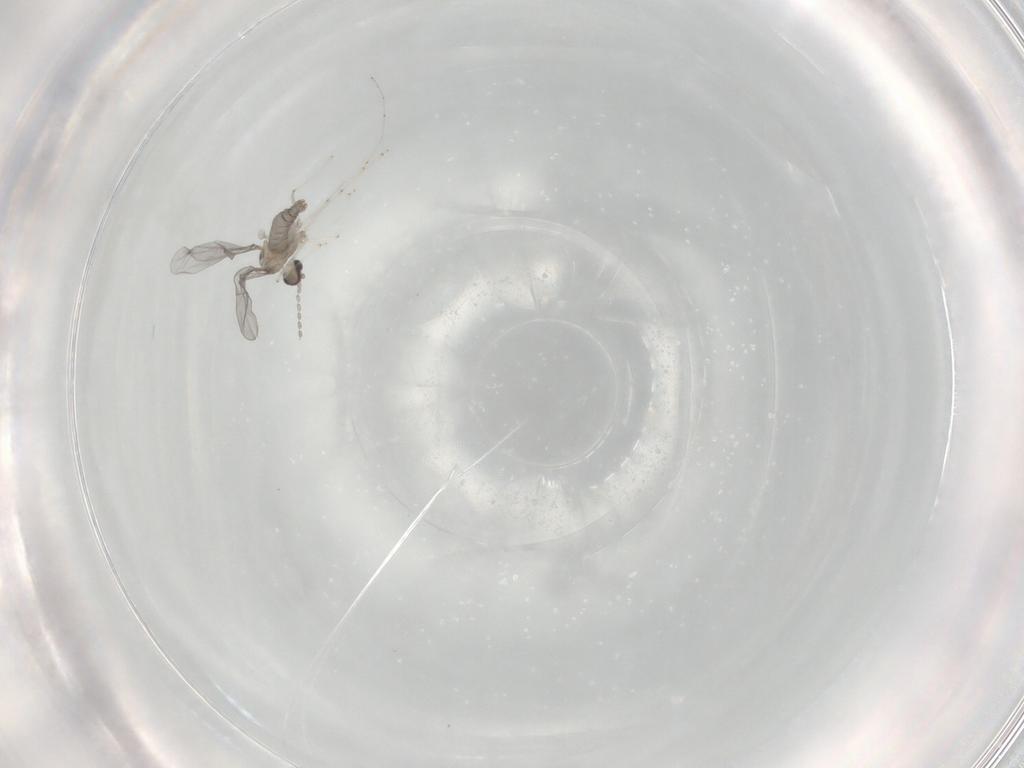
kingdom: Animalia
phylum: Arthropoda
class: Insecta
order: Diptera
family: Cecidomyiidae
